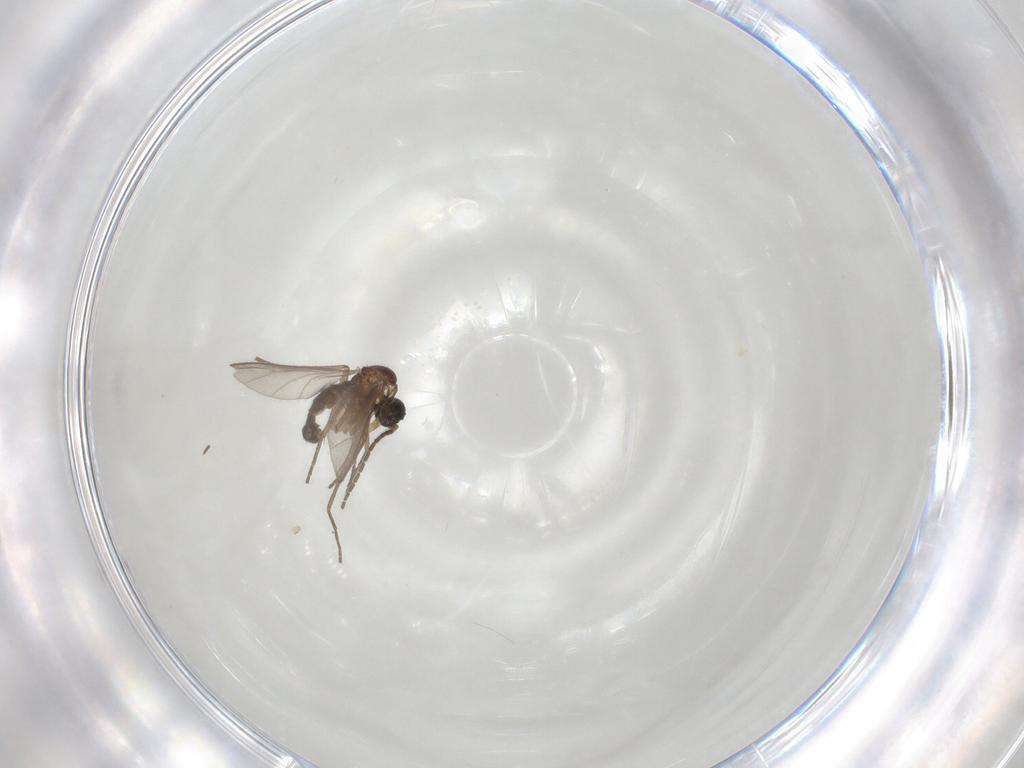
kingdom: Animalia
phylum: Arthropoda
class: Insecta
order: Diptera
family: Sciaridae
